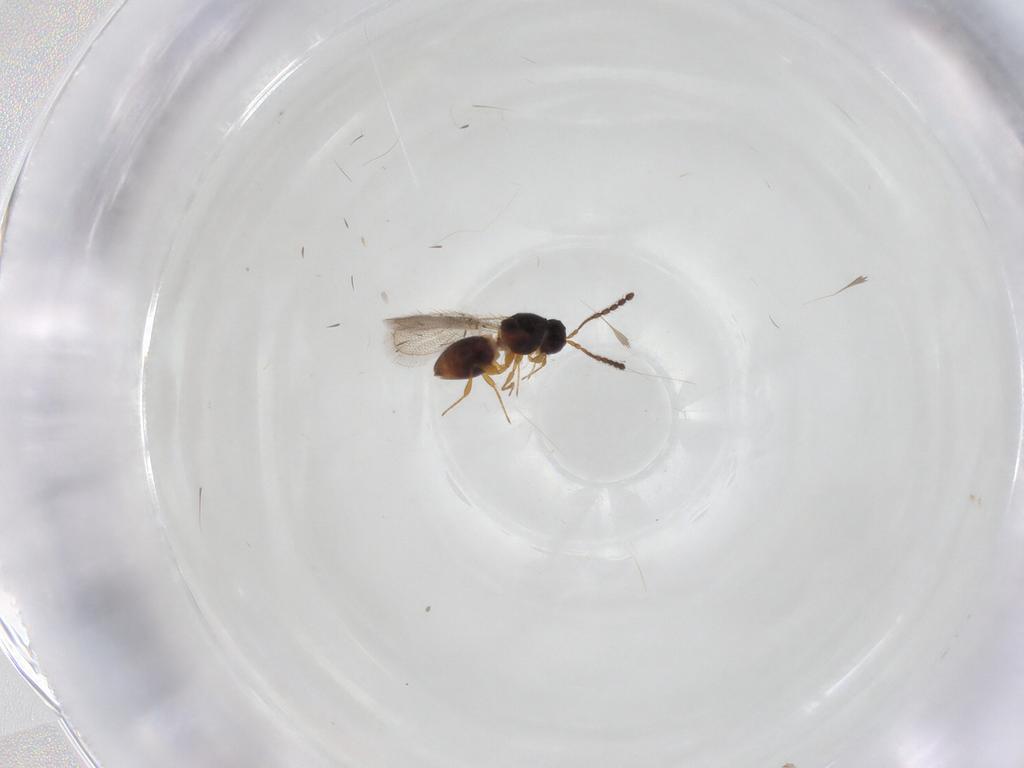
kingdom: Animalia
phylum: Arthropoda
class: Insecta
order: Hymenoptera
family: Figitidae
